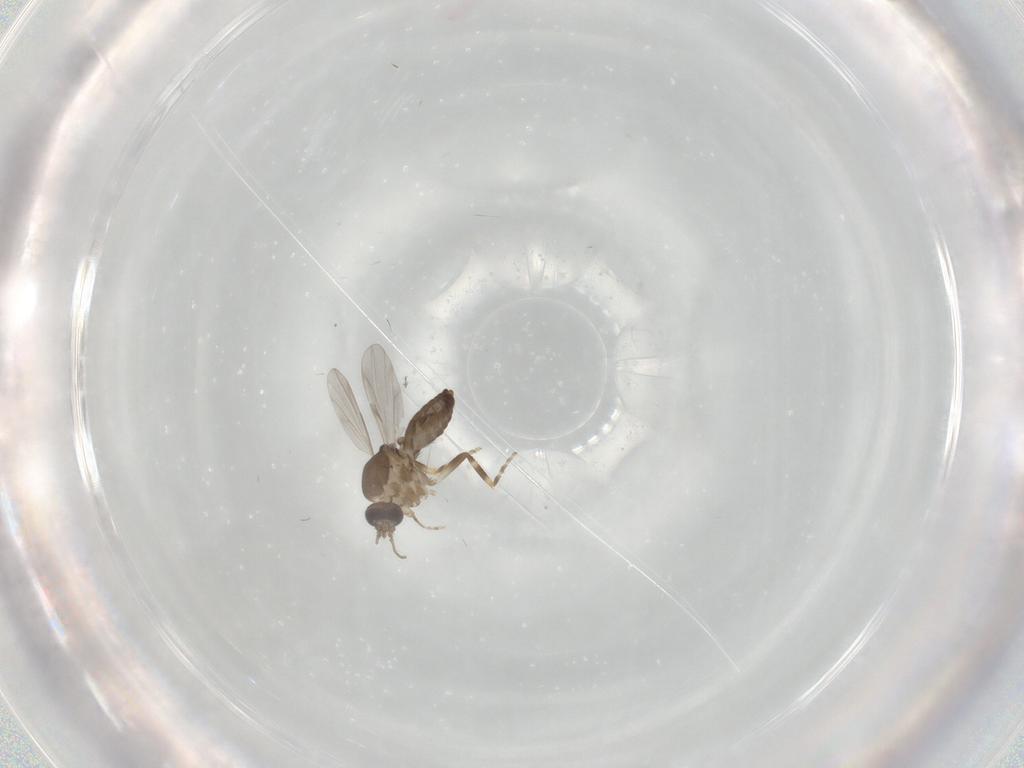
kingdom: Animalia
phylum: Arthropoda
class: Insecta
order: Diptera
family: Ceratopogonidae
